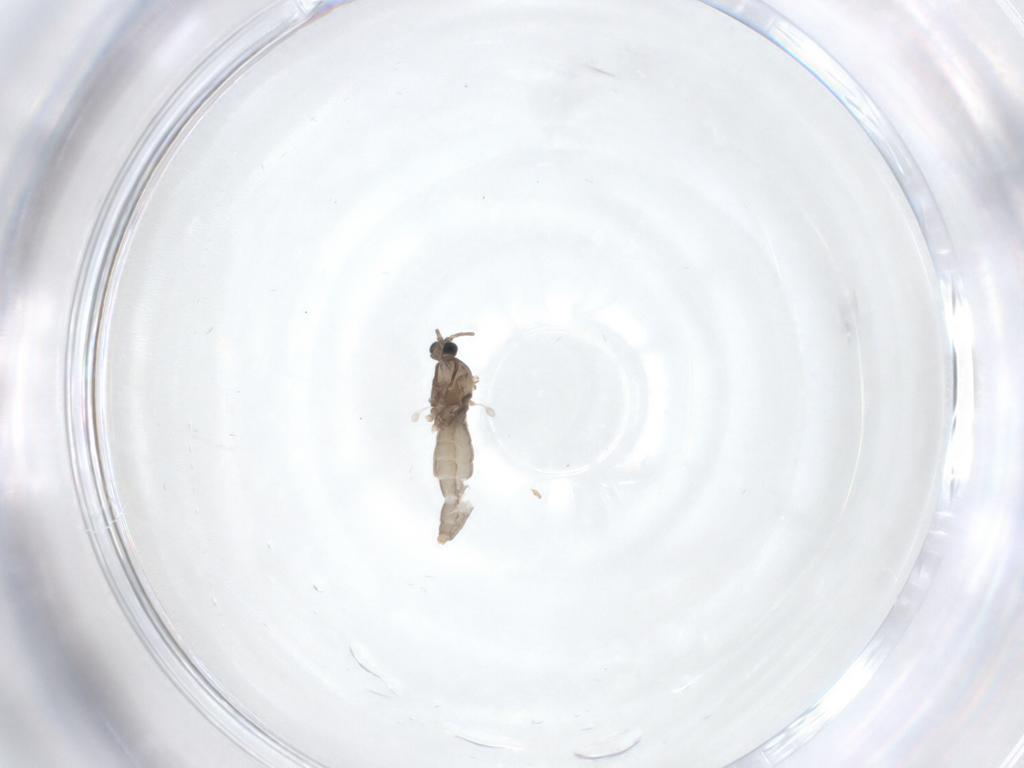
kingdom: Animalia
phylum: Arthropoda
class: Insecta
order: Diptera
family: Cecidomyiidae
